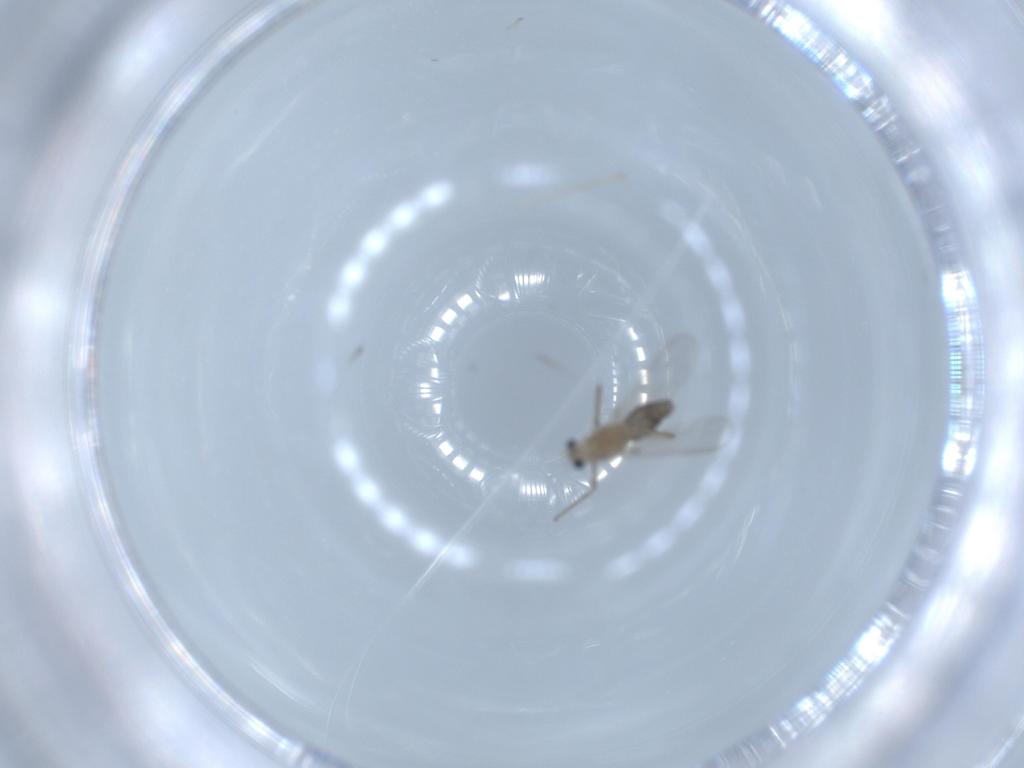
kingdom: Animalia
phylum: Arthropoda
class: Insecta
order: Diptera
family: Chironomidae
